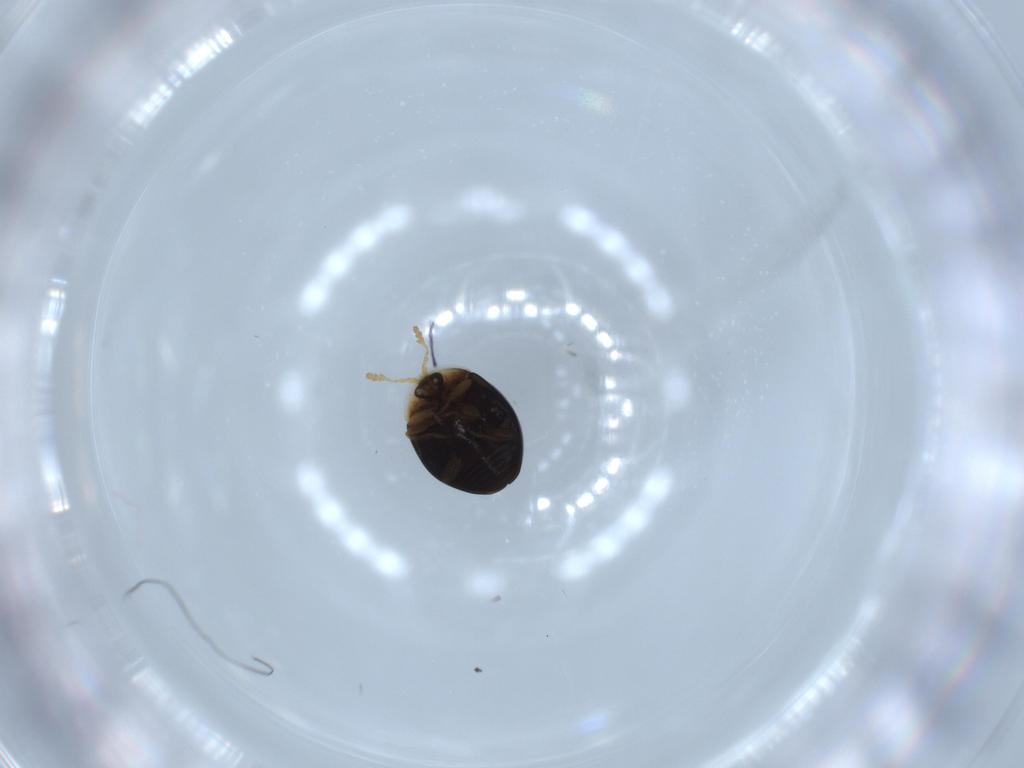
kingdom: Animalia
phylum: Arthropoda
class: Insecta
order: Coleoptera
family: Corylophidae
